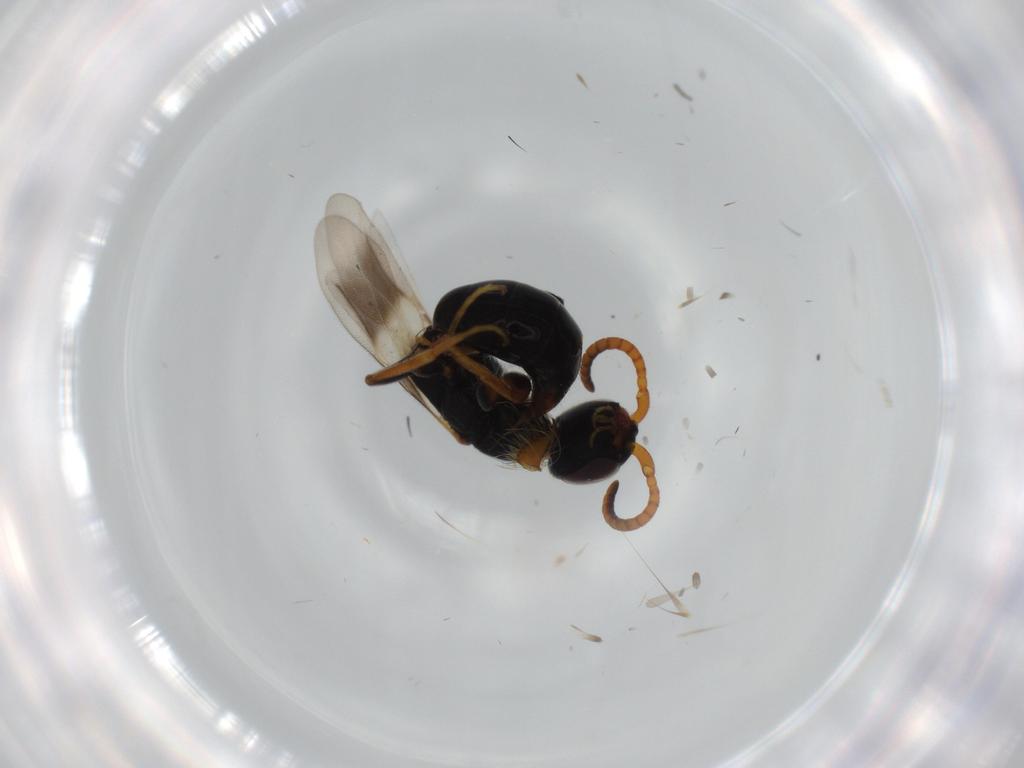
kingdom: Animalia
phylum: Arthropoda
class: Insecta
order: Hymenoptera
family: Bethylidae
